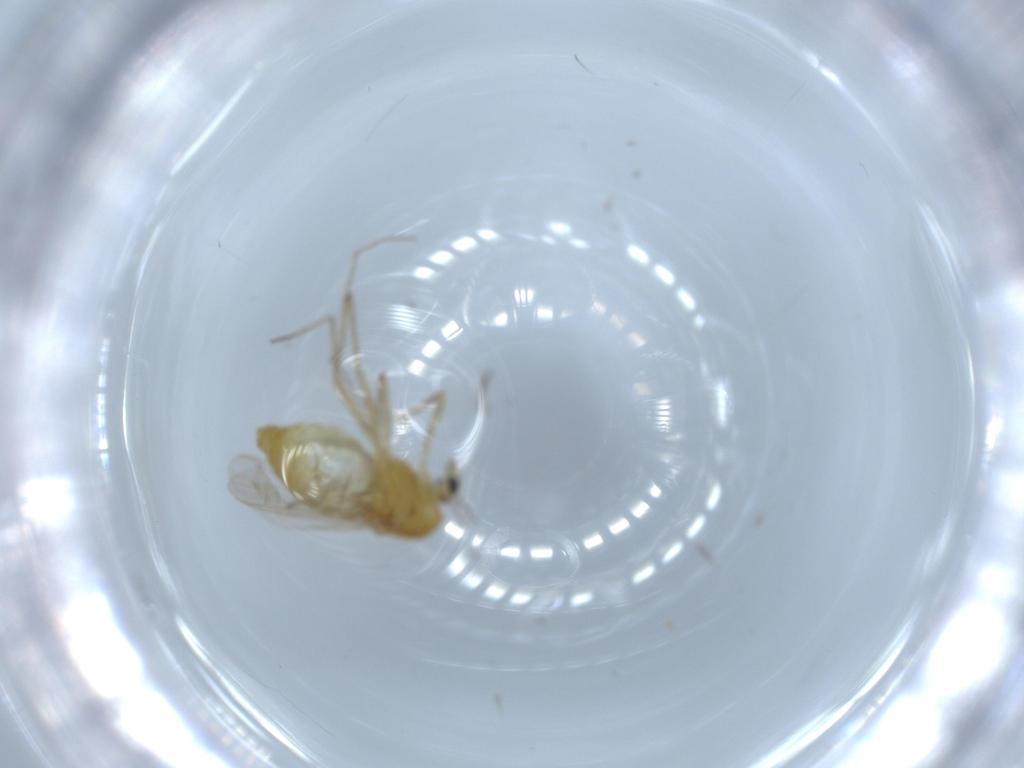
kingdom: Animalia
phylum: Arthropoda
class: Insecta
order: Diptera
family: Chironomidae
